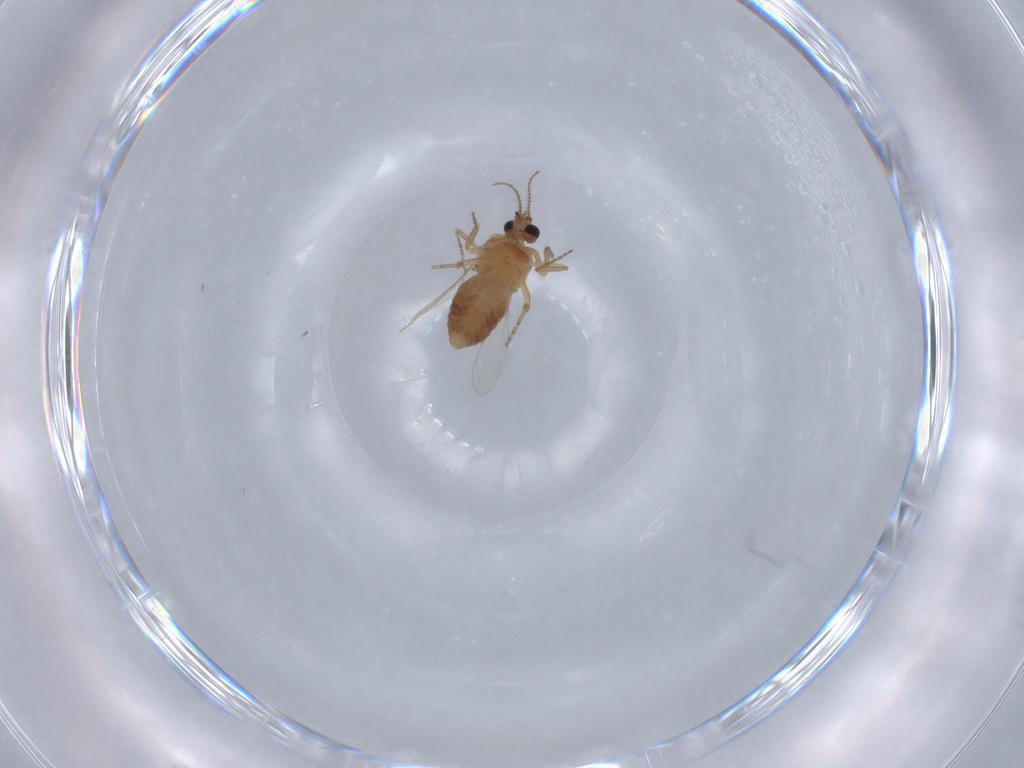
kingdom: Animalia
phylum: Arthropoda
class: Insecta
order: Diptera
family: Ceratopogonidae
